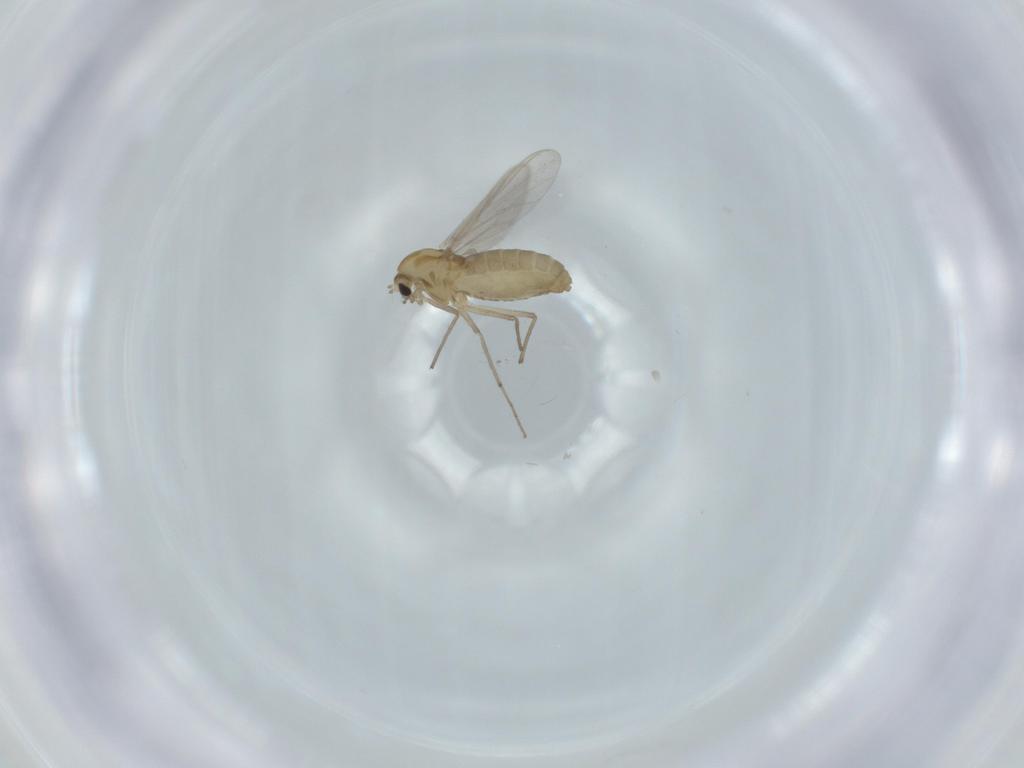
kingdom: Animalia
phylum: Arthropoda
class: Insecta
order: Diptera
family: Chironomidae
